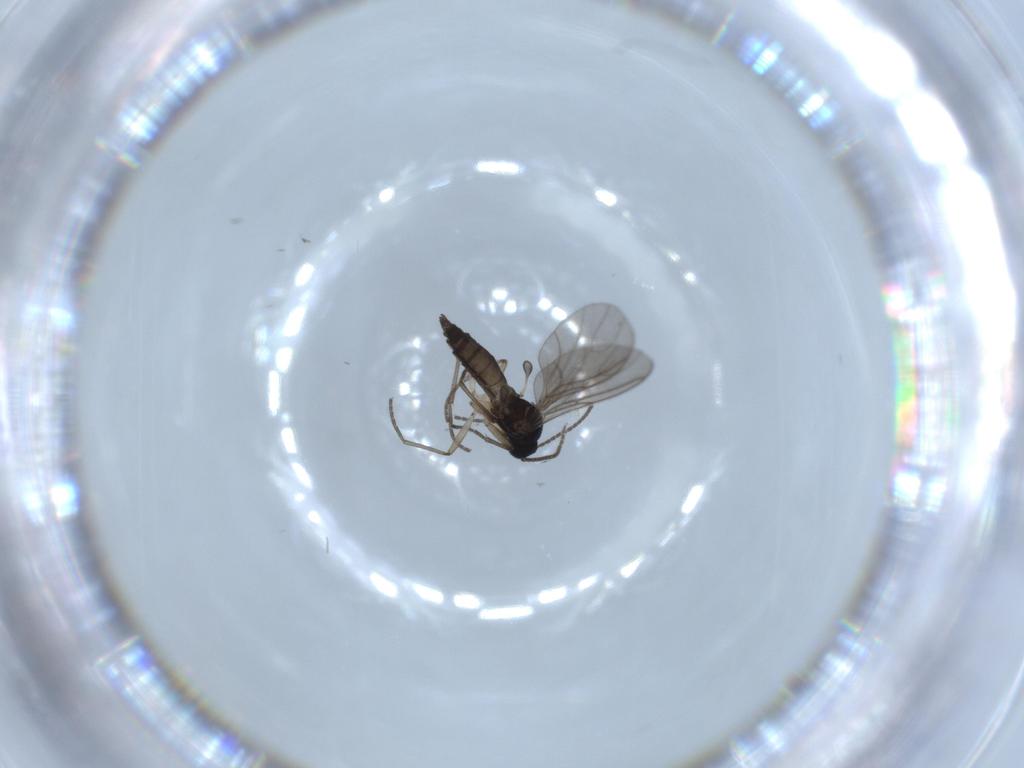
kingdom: Animalia
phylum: Arthropoda
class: Insecta
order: Diptera
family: Sciaridae
